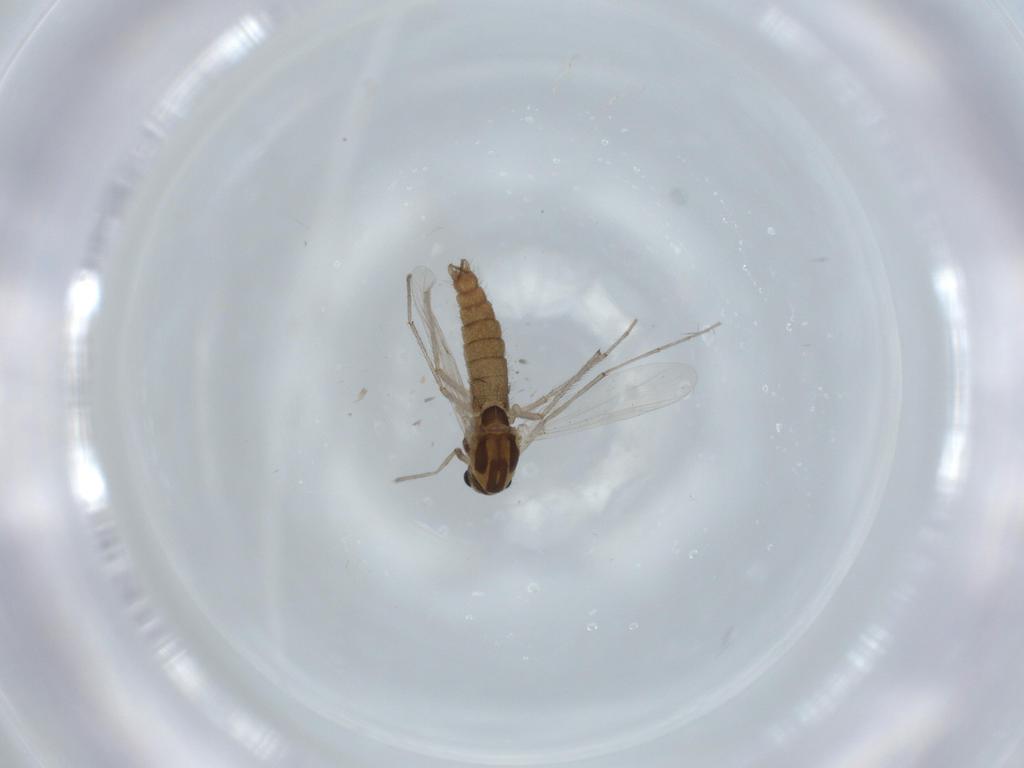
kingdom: Animalia
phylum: Arthropoda
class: Insecta
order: Diptera
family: Chironomidae
